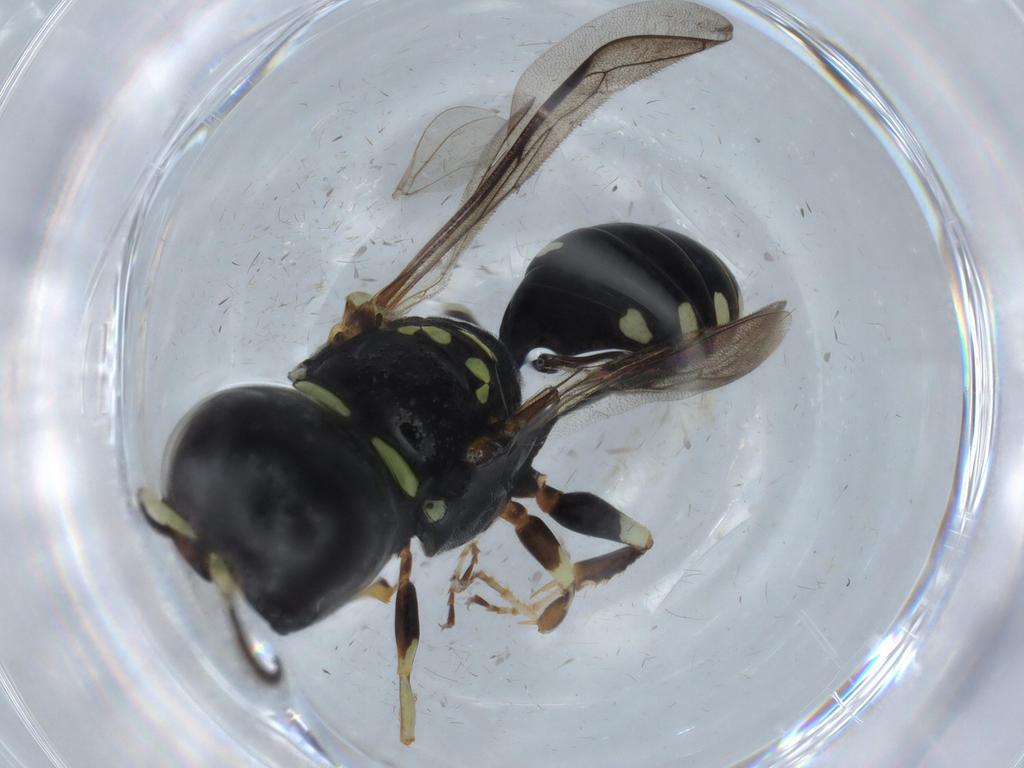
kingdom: Animalia
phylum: Arthropoda
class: Insecta
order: Hymenoptera
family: Crabronidae
